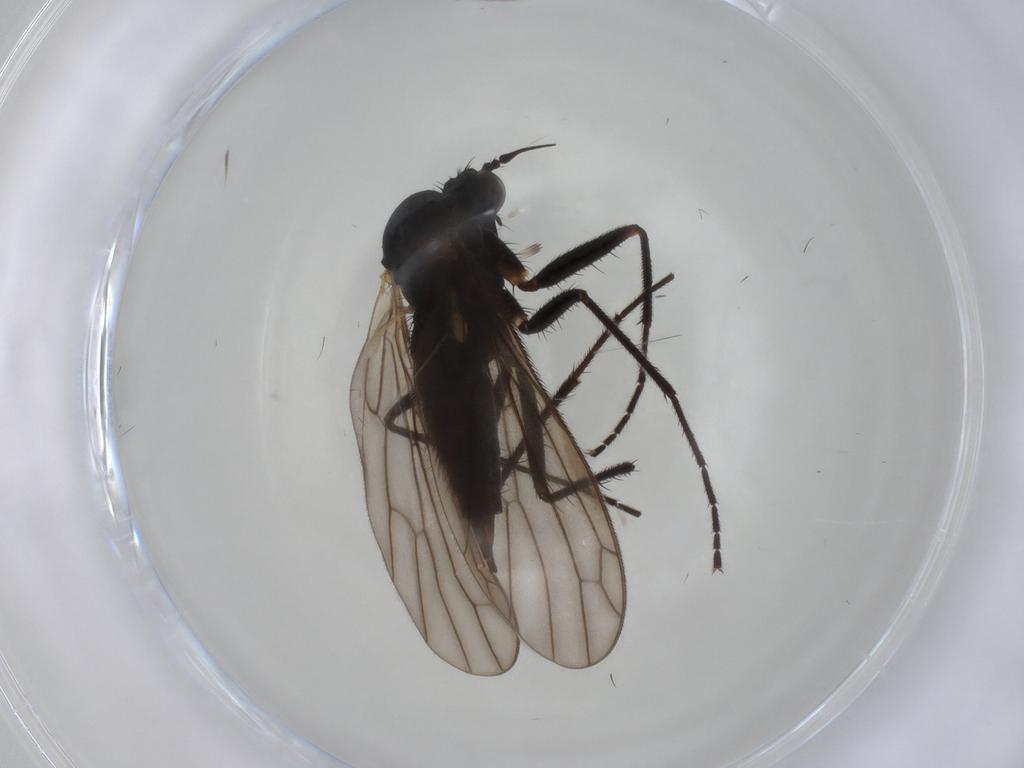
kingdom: Animalia
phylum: Arthropoda
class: Insecta
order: Diptera
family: Empididae
